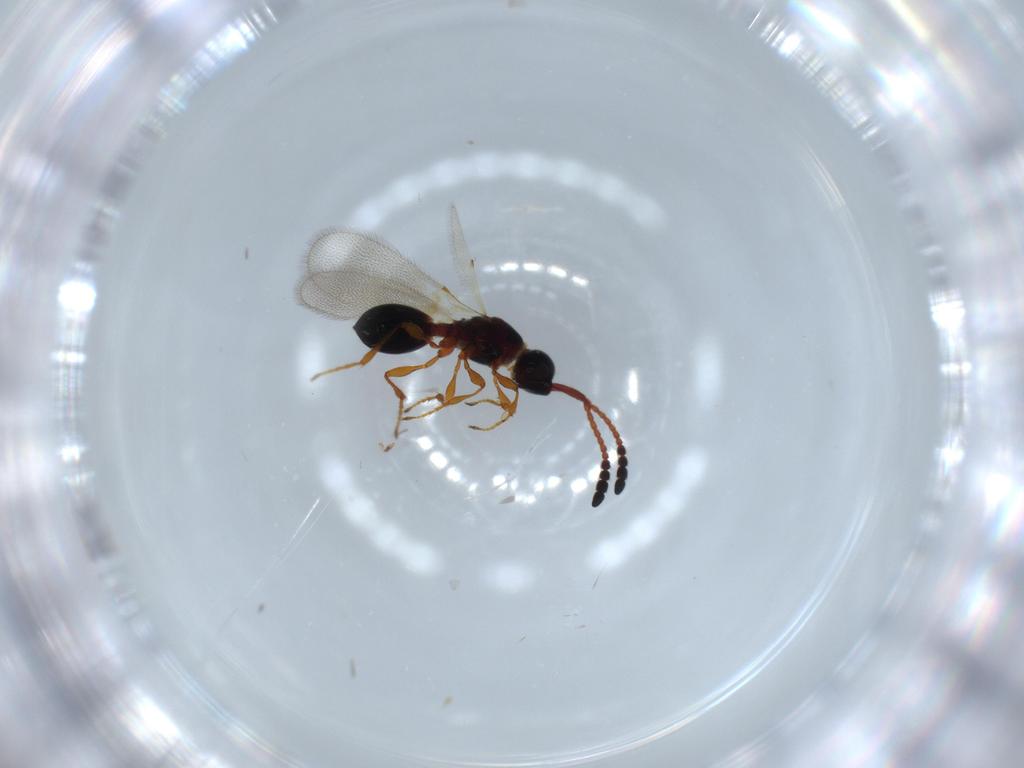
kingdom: Animalia
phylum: Arthropoda
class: Insecta
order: Hymenoptera
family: Diapriidae
